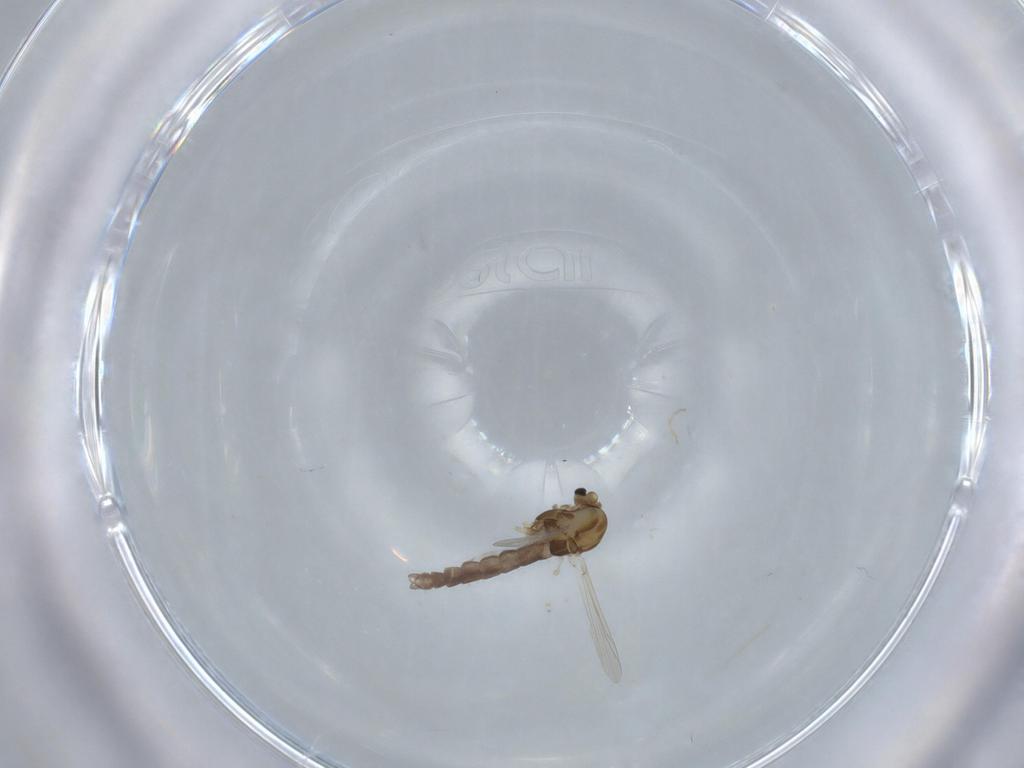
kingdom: Animalia
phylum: Arthropoda
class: Insecta
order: Diptera
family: Chironomidae
